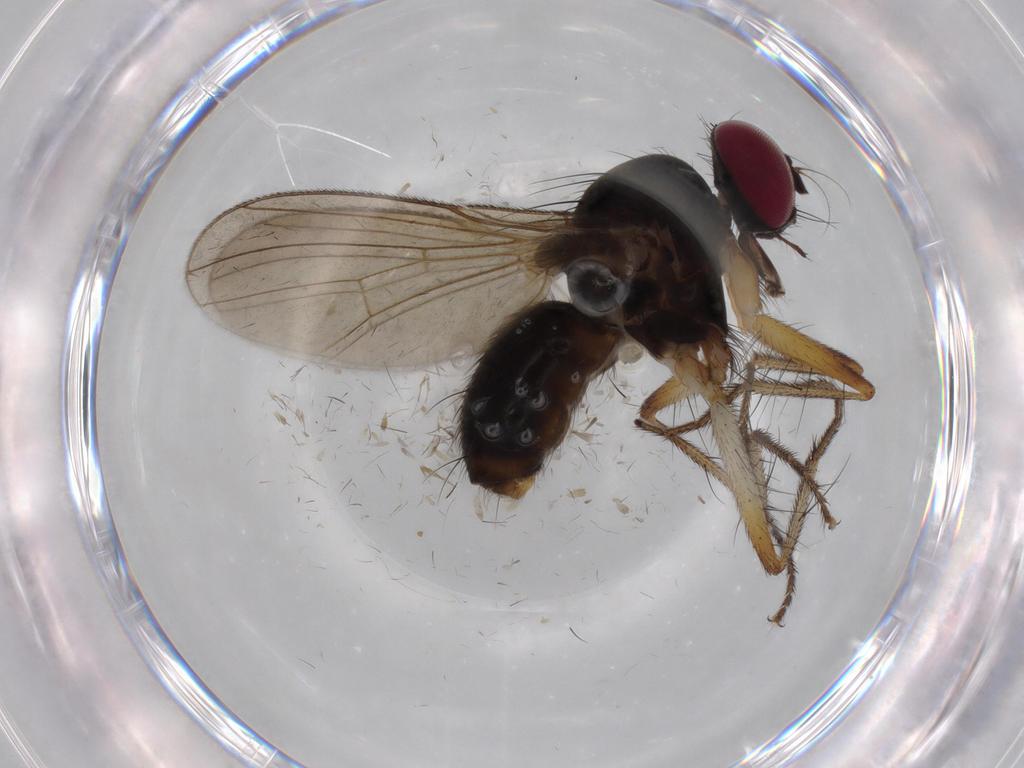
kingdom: Animalia
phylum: Arthropoda
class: Insecta
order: Diptera
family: Anthomyiidae
